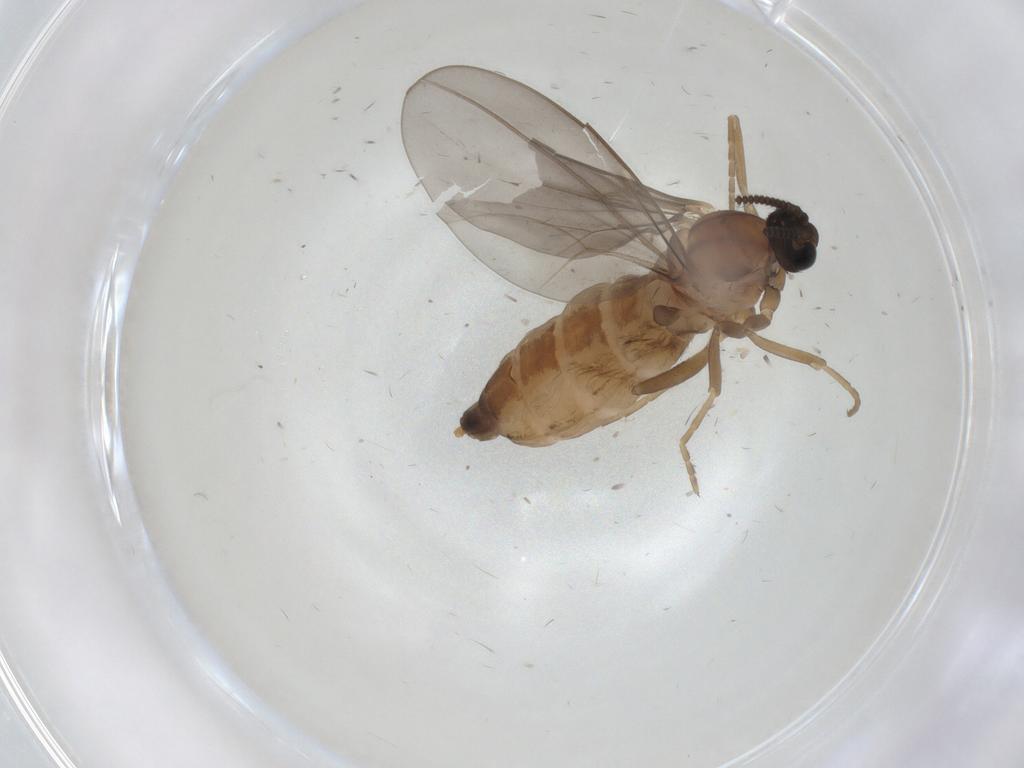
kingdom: Animalia
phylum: Arthropoda
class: Insecta
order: Diptera
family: Cecidomyiidae
